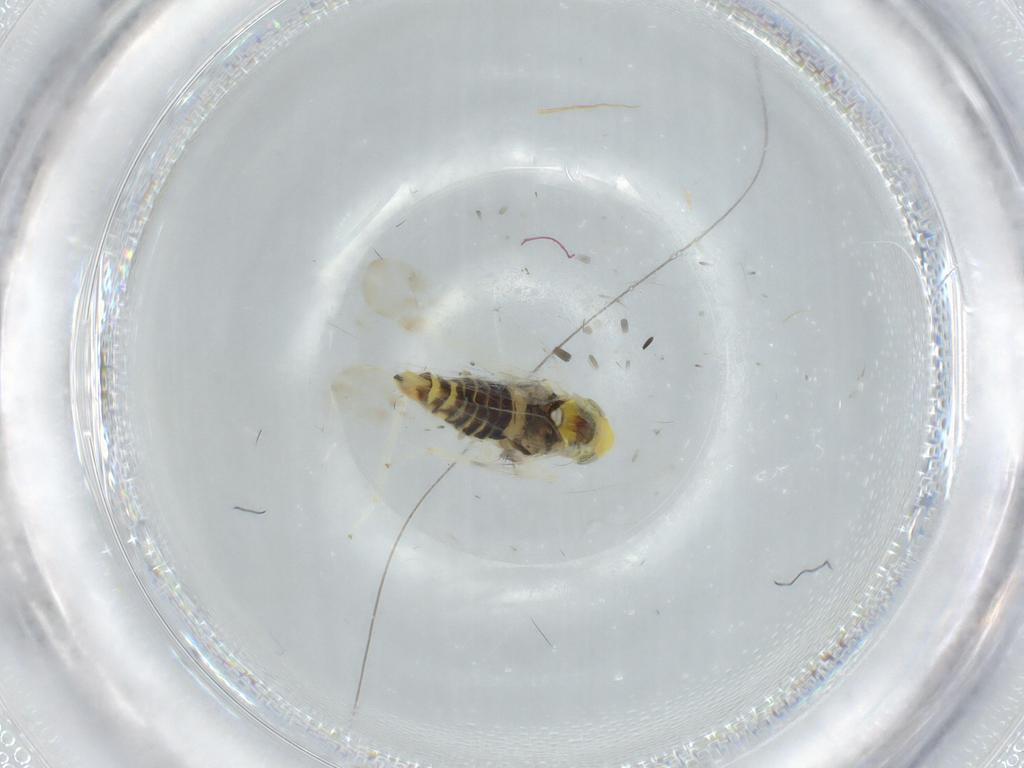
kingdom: Animalia
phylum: Arthropoda
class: Insecta
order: Hemiptera
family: Cicadellidae
